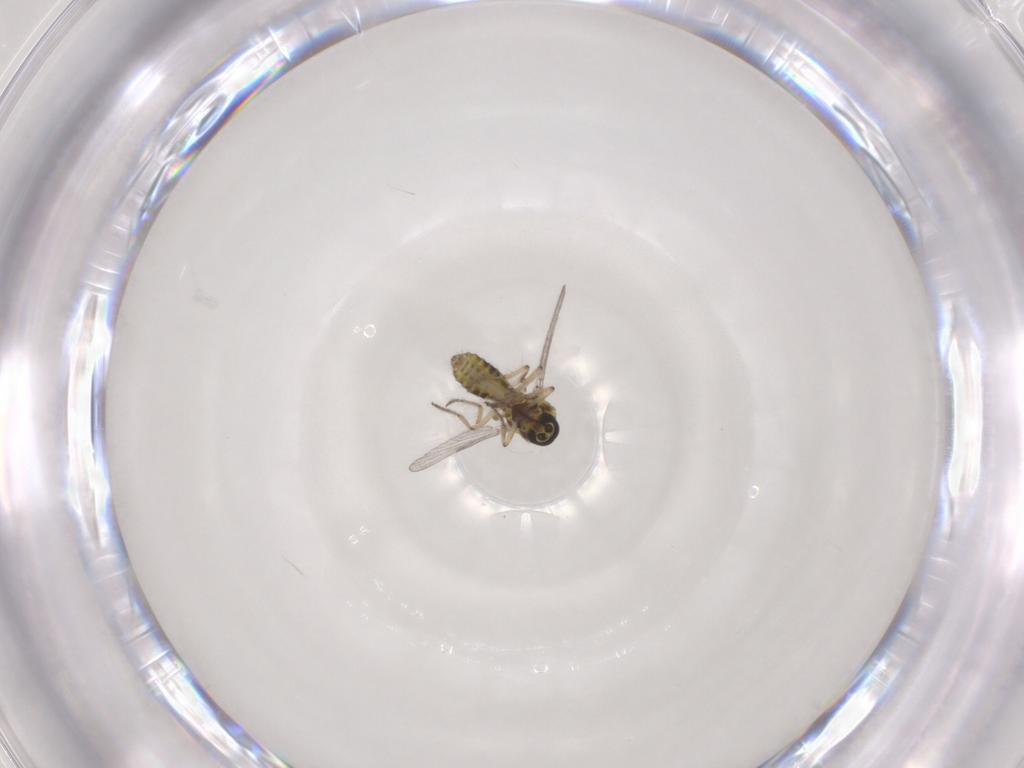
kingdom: Animalia
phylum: Arthropoda
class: Insecta
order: Diptera
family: Ceratopogonidae
